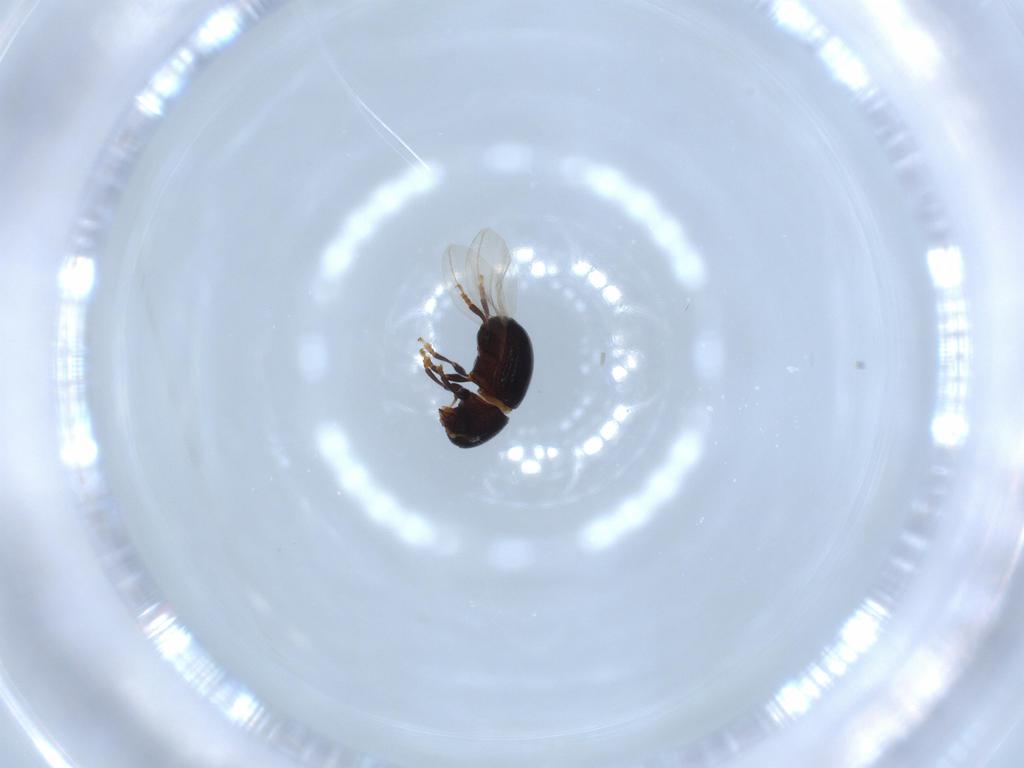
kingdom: Animalia
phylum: Arthropoda
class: Insecta
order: Coleoptera
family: Anthribidae
